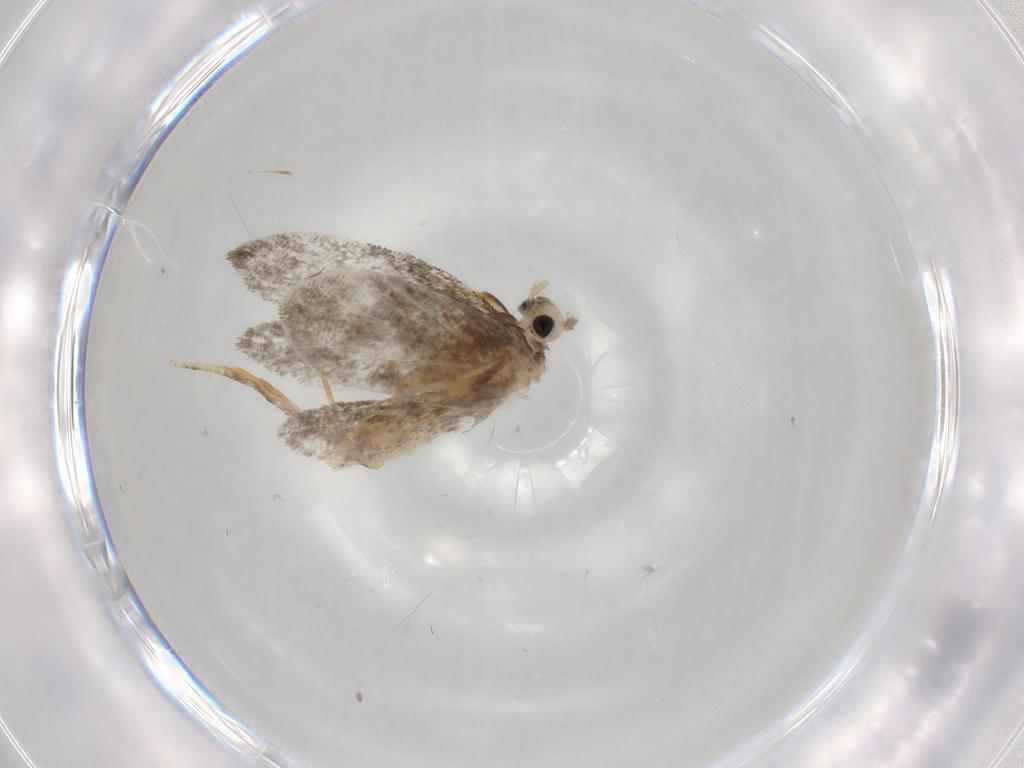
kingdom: Animalia
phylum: Arthropoda
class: Insecta
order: Lepidoptera
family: Psychidae
